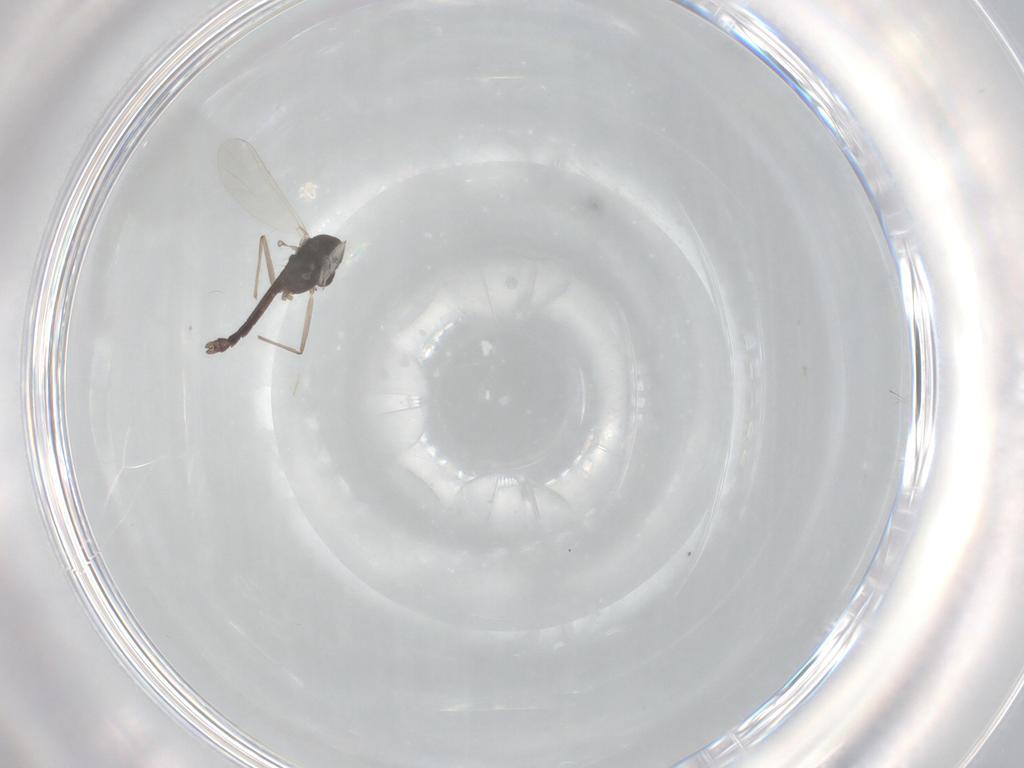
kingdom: Animalia
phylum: Arthropoda
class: Insecta
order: Diptera
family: Chironomidae
